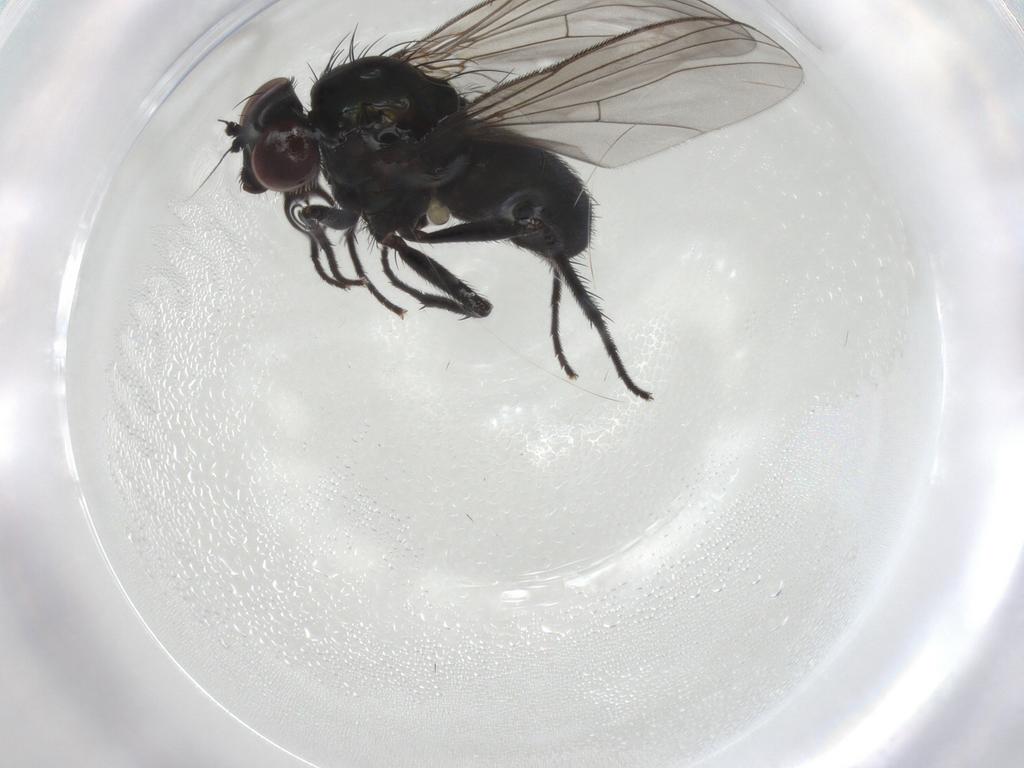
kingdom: Animalia
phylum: Arthropoda
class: Insecta
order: Diptera
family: Dolichopodidae
